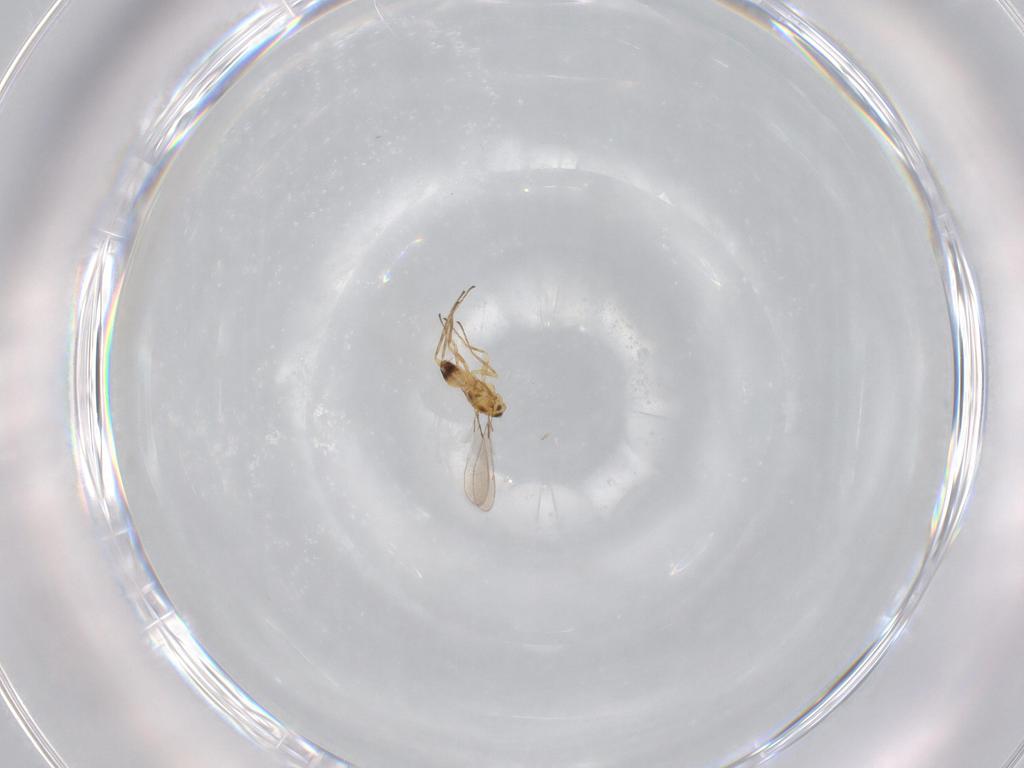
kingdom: Animalia
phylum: Arthropoda
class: Insecta
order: Hymenoptera
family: Mymaridae
